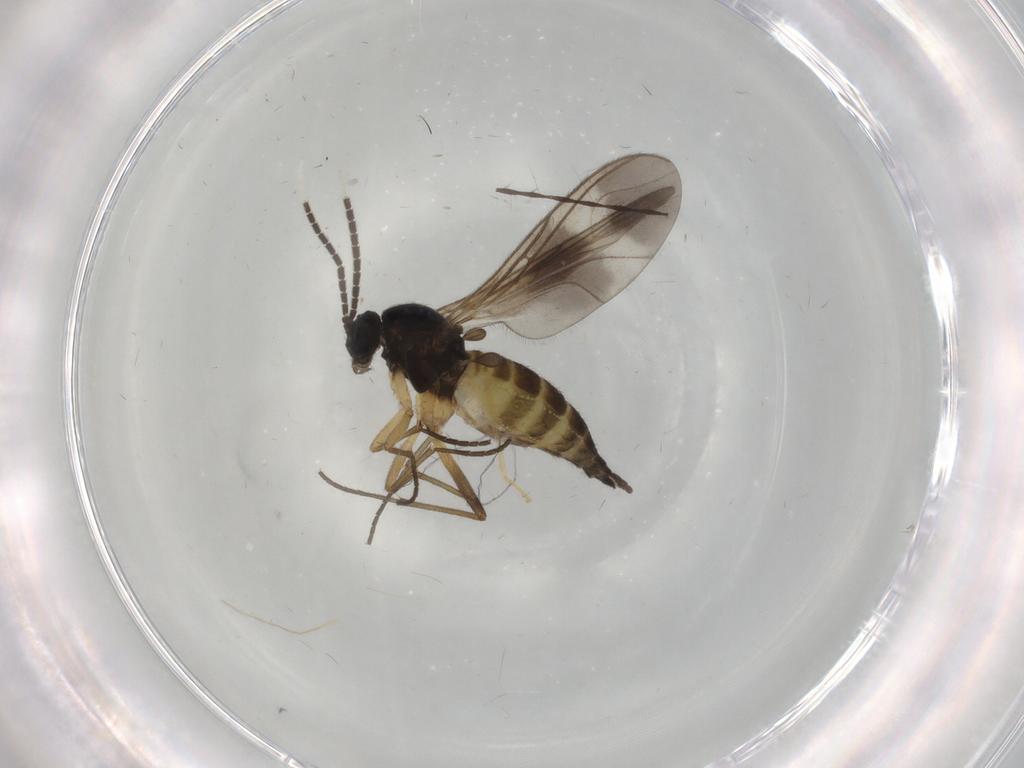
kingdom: Animalia
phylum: Arthropoda
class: Insecta
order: Diptera
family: Sciaridae
